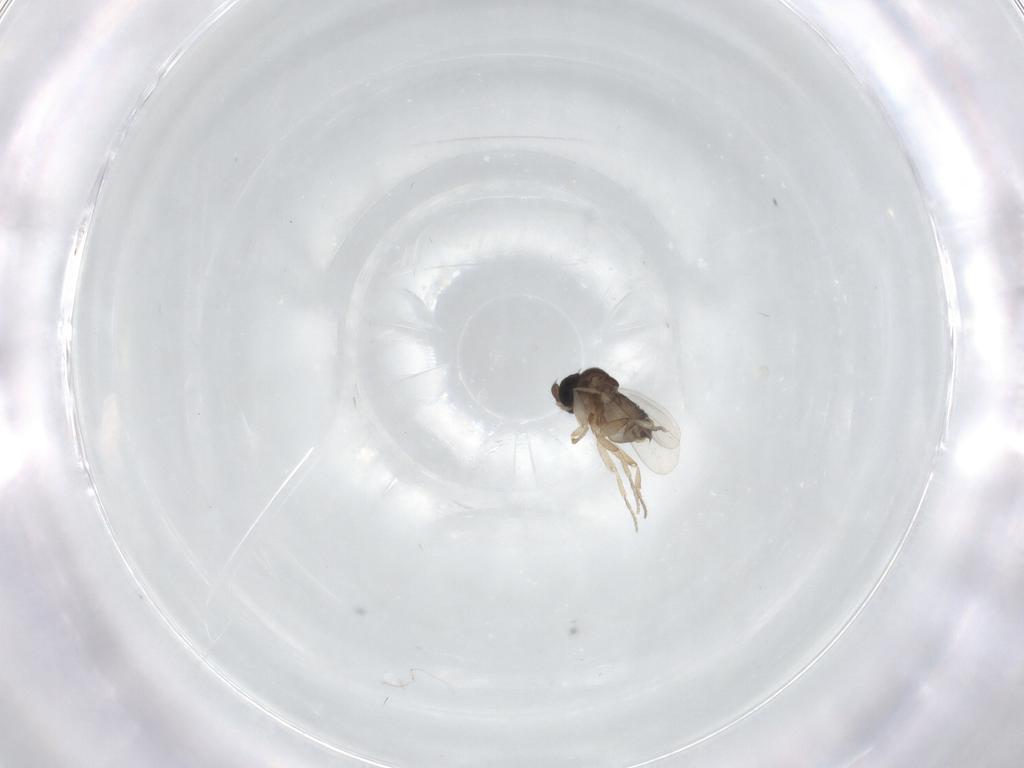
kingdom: Animalia
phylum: Arthropoda
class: Insecta
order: Diptera
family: Phoridae
